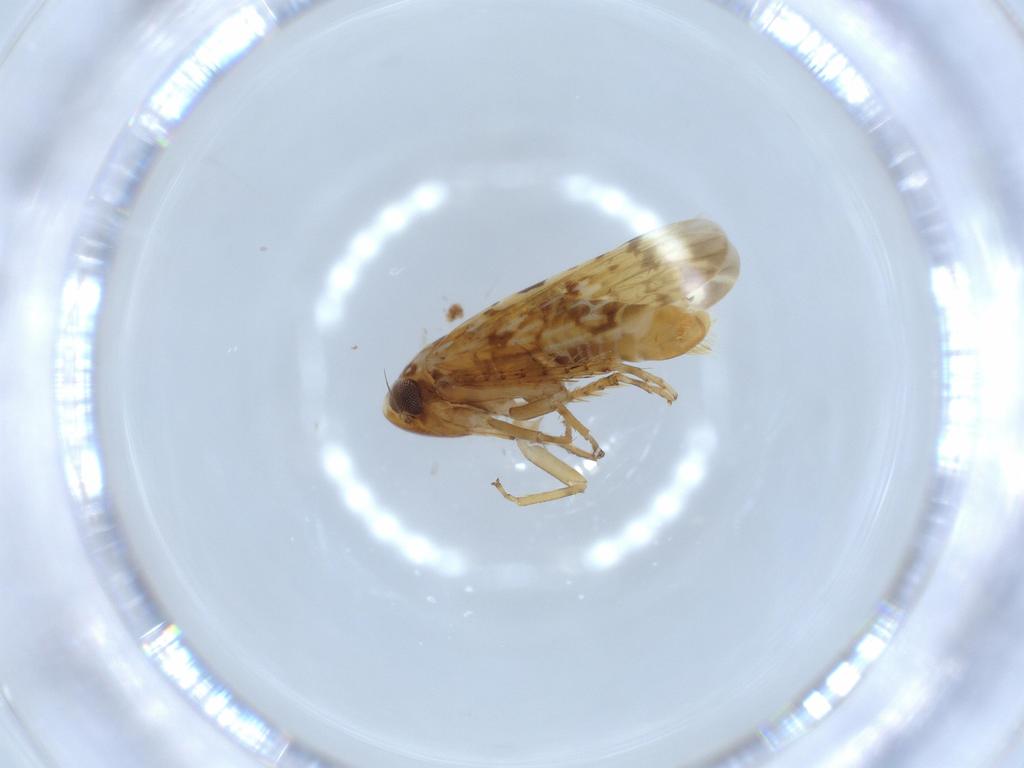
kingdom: Animalia
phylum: Arthropoda
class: Insecta
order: Hemiptera
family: Cicadellidae
